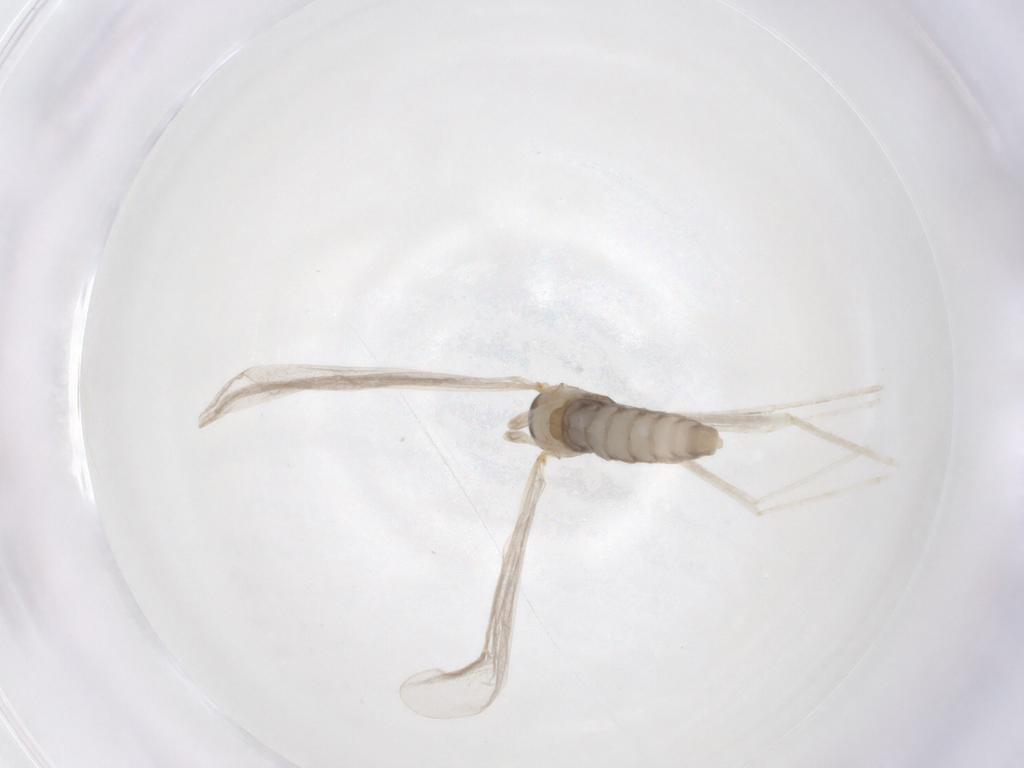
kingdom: Animalia
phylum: Arthropoda
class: Insecta
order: Diptera
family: Cecidomyiidae
